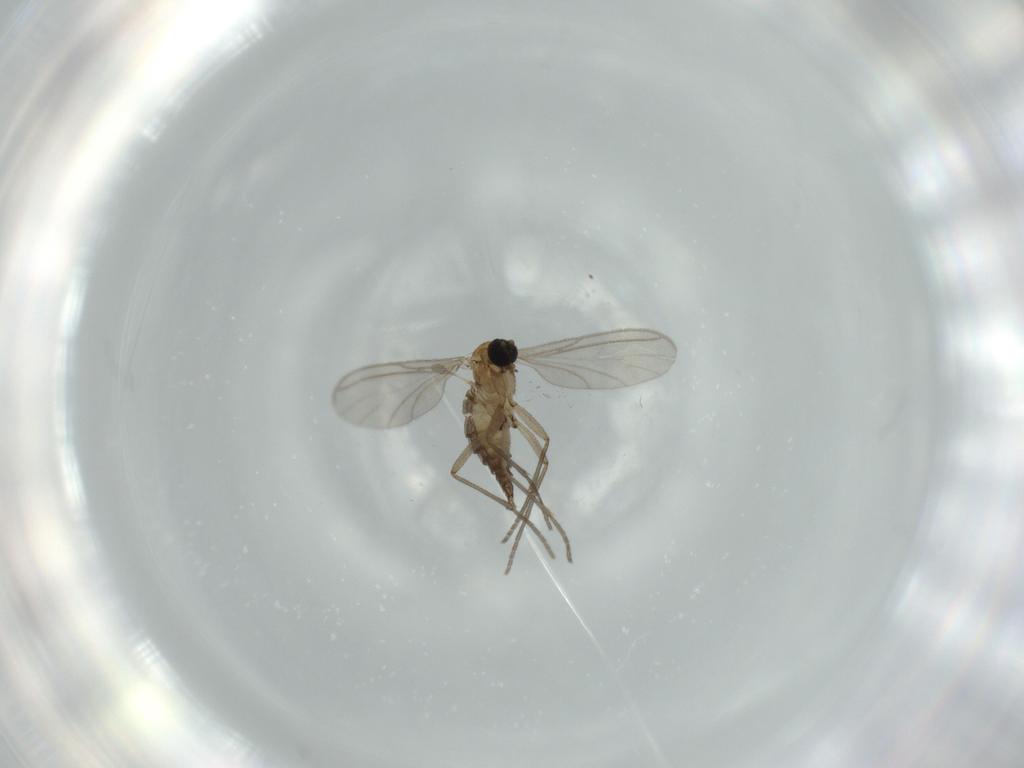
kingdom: Animalia
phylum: Arthropoda
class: Insecta
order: Diptera
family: Sciaridae
